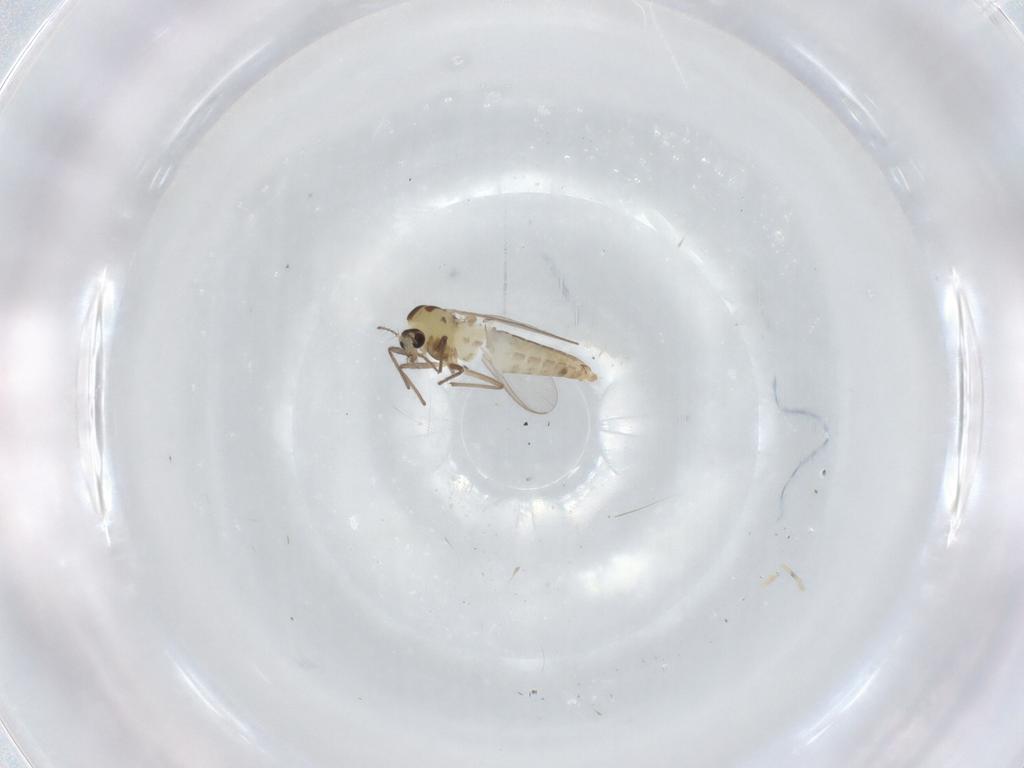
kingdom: Animalia
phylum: Arthropoda
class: Insecta
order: Diptera
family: Chironomidae
